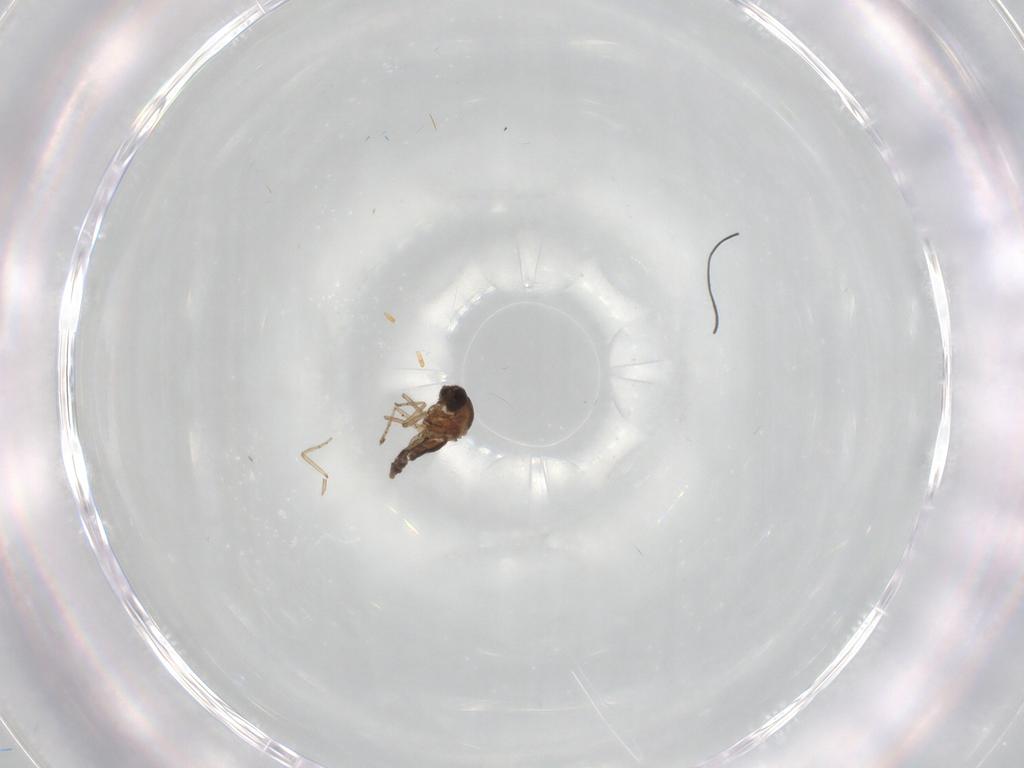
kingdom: Animalia
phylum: Arthropoda
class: Insecta
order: Diptera
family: Ceratopogonidae
